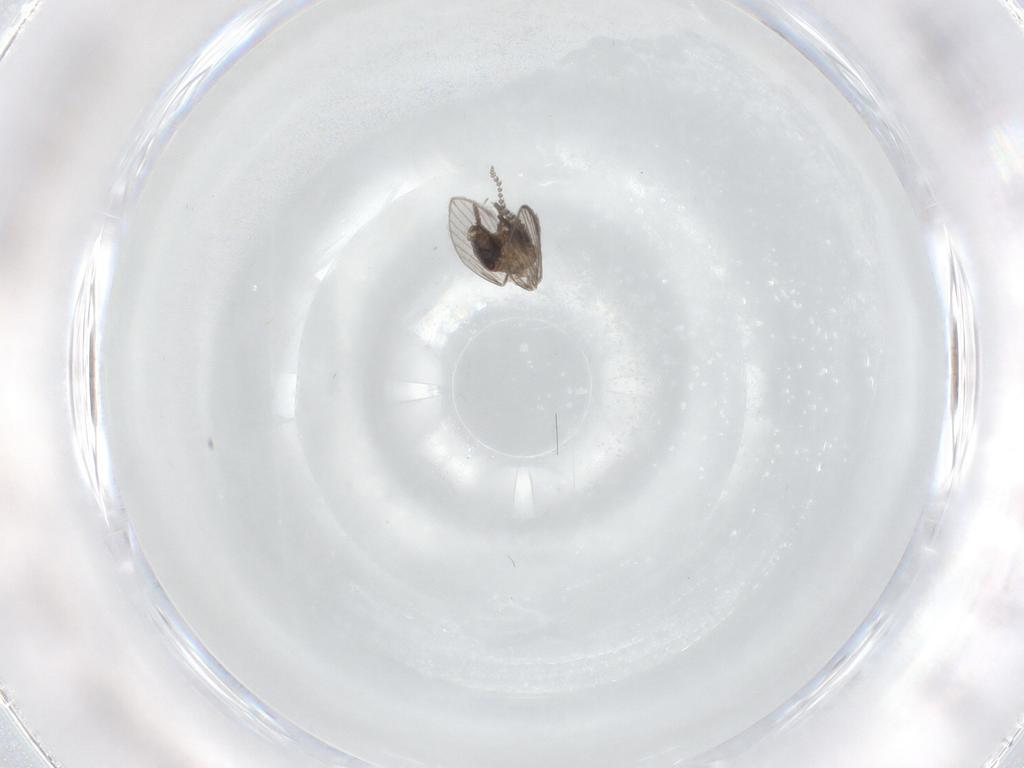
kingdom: Animalia
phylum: Arthropoda
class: Insecta
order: Diptera
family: Psychodidae
